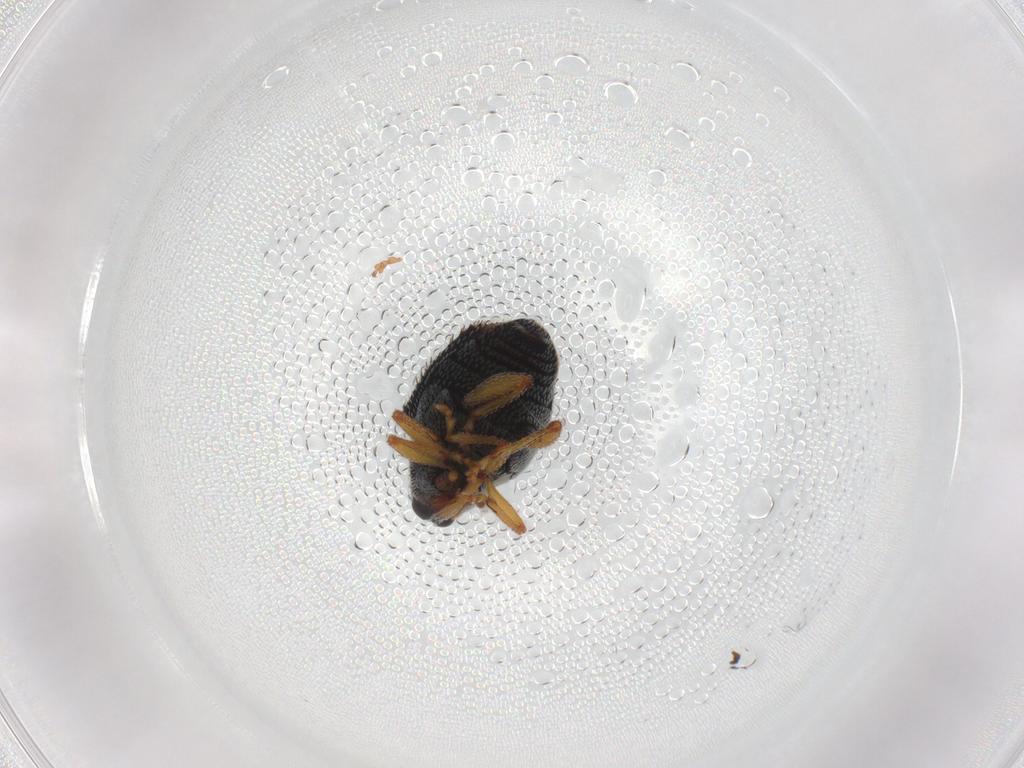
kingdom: Animalia
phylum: Arthropoda
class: Insecta
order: Coleoptera
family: Curculionidae
